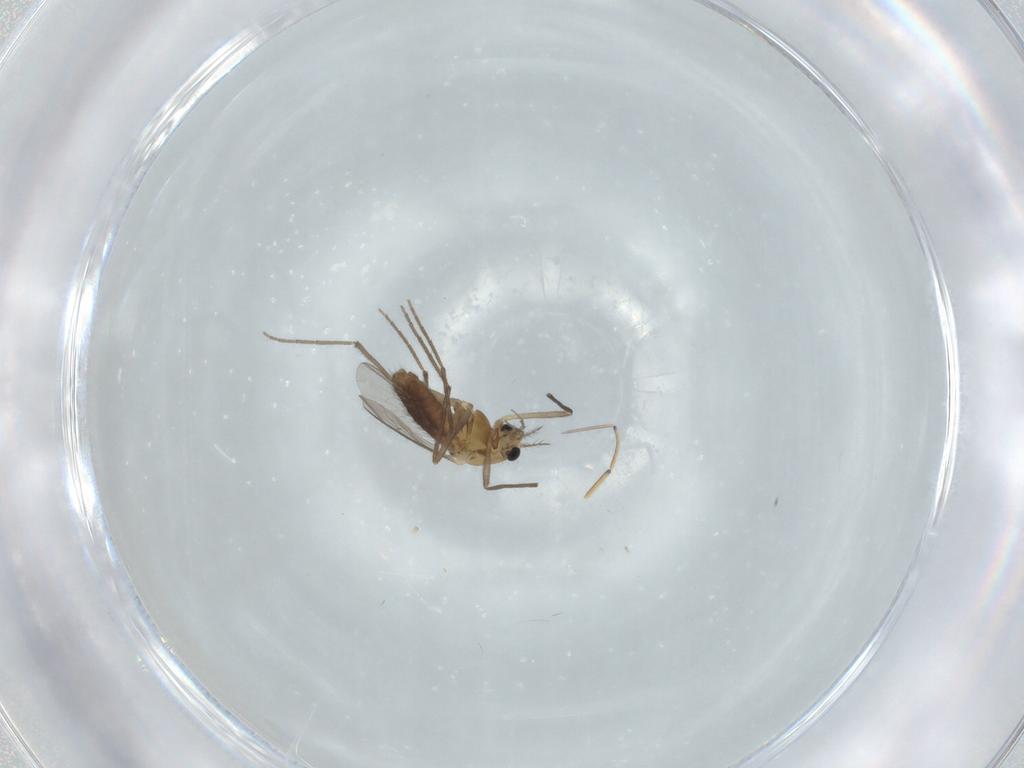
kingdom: Animalia
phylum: Arthropoda
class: Insecta
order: Diptera
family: Chironomidae
